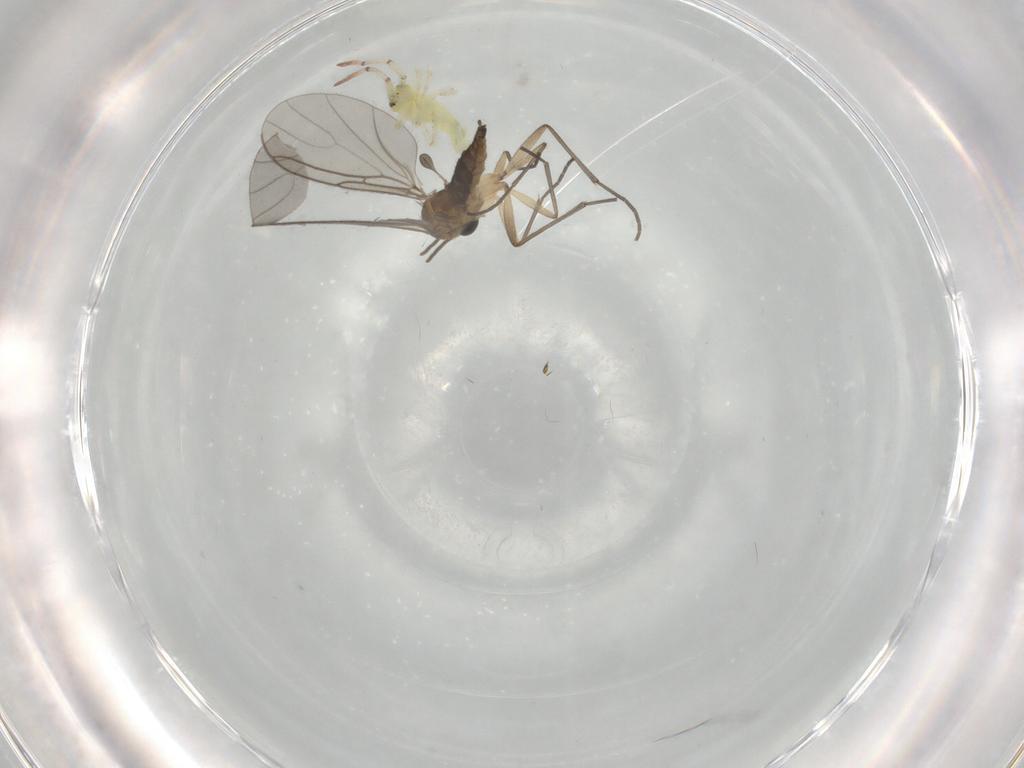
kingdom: Animalia
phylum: Arthropoda
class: Insecta
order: Diptera
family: Sciaridae
